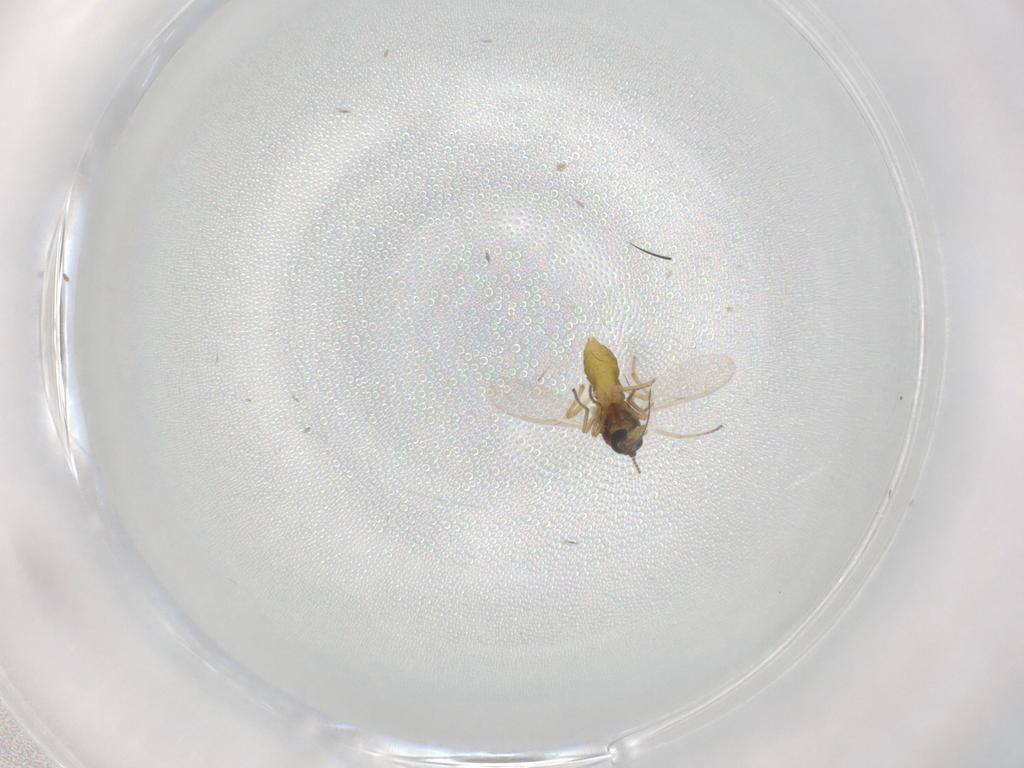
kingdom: Animalia
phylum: Arthropoda
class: Insecta
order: Diptera
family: Ceratopogonidae
